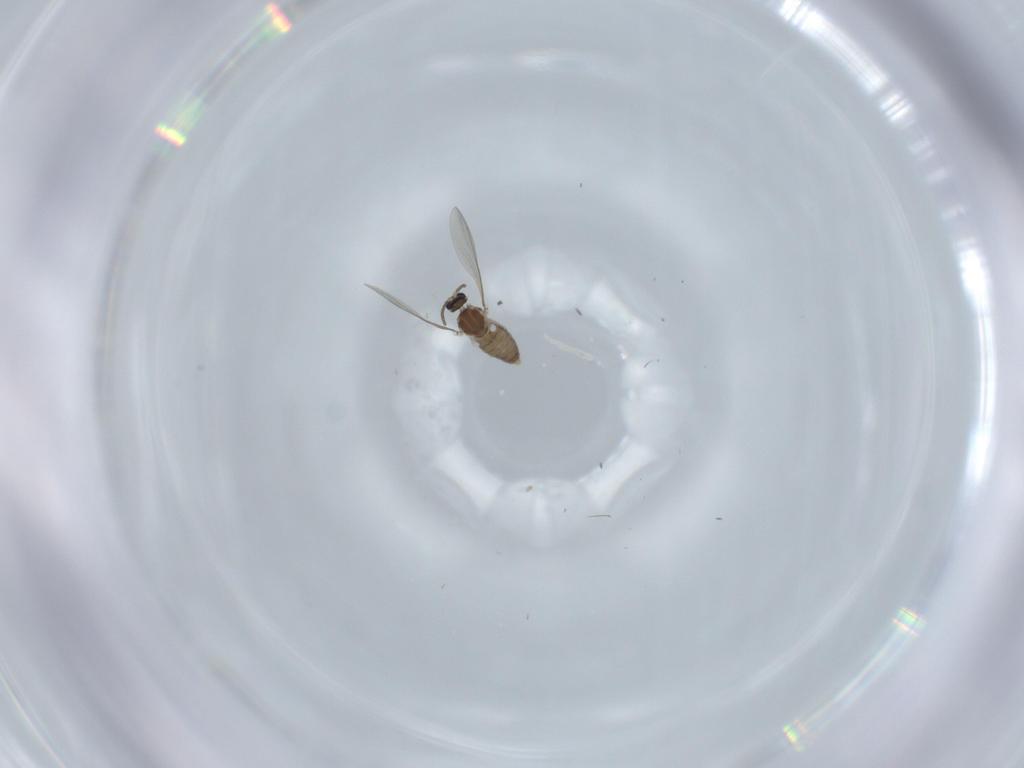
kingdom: Animalia
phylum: Arthropoda
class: Insecta
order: Diptera
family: Cecidomyiidae
